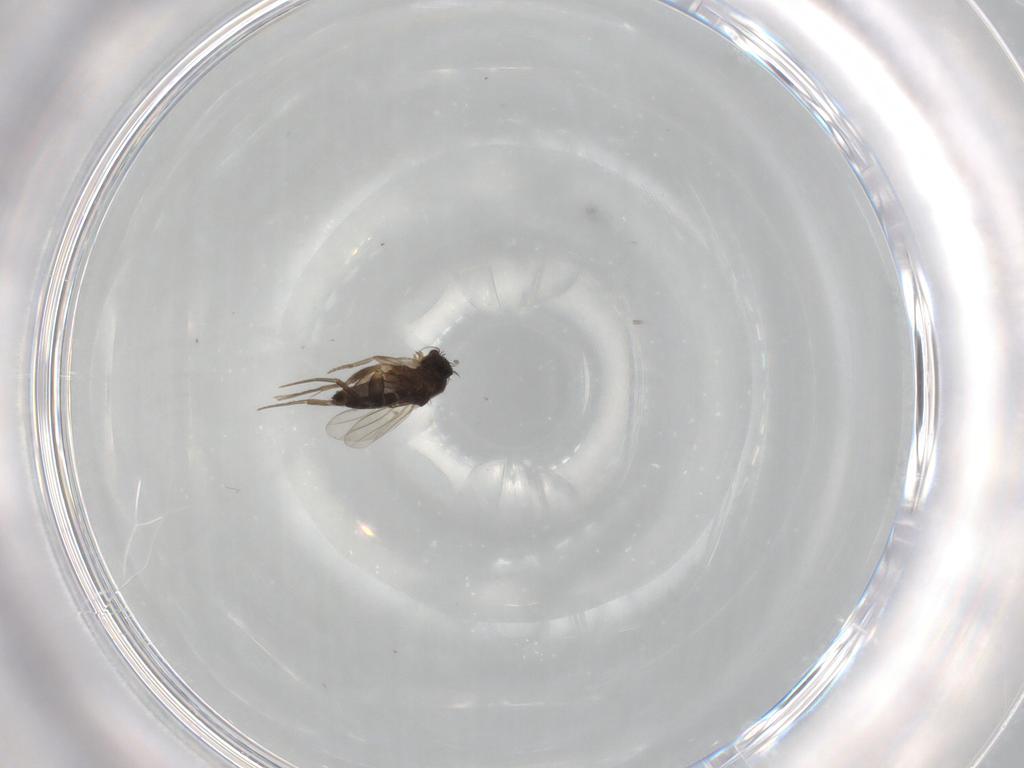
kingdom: Animalia
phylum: Arthropoda
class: Insecta
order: Diptera
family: Phoridae
